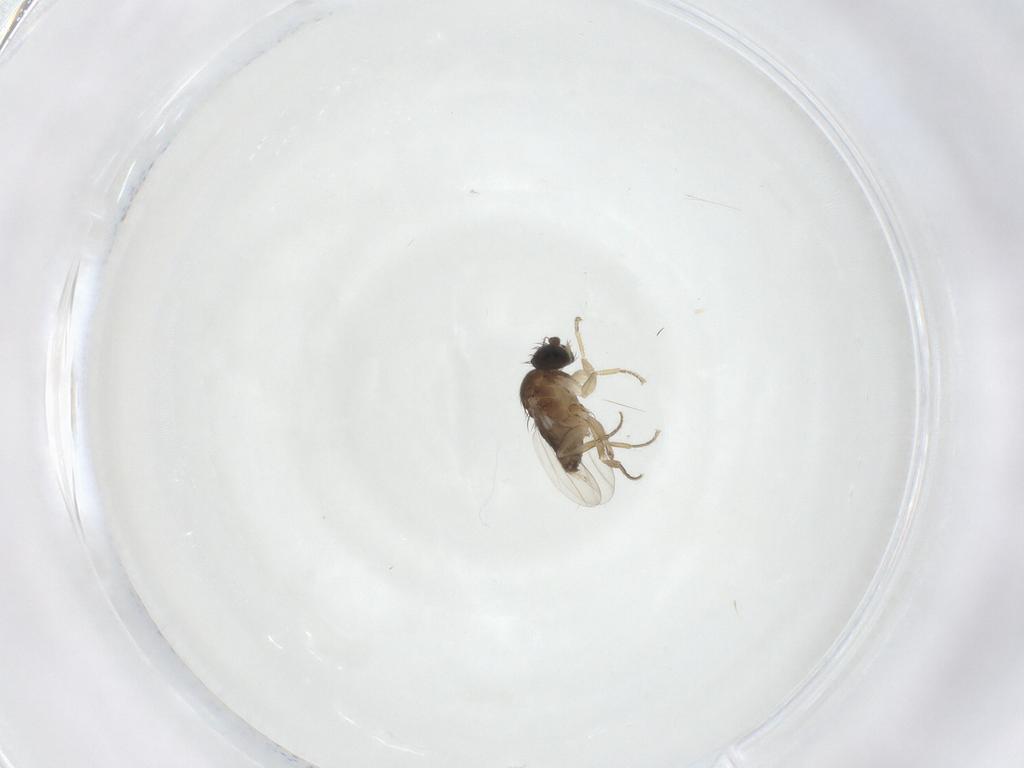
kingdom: Animalia
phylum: Arthropoda
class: Insecta
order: Diptera
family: Phoridae
